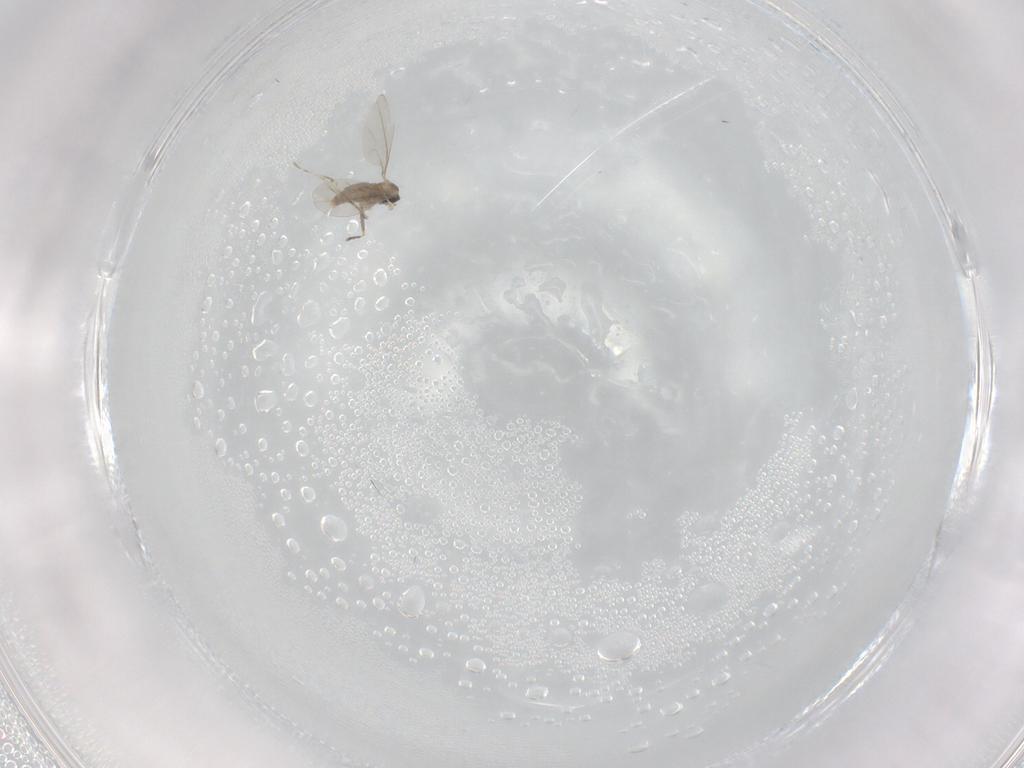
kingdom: Animalia
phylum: Arthropoda
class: Insecta
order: Diptera
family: Cecidomyiidae
